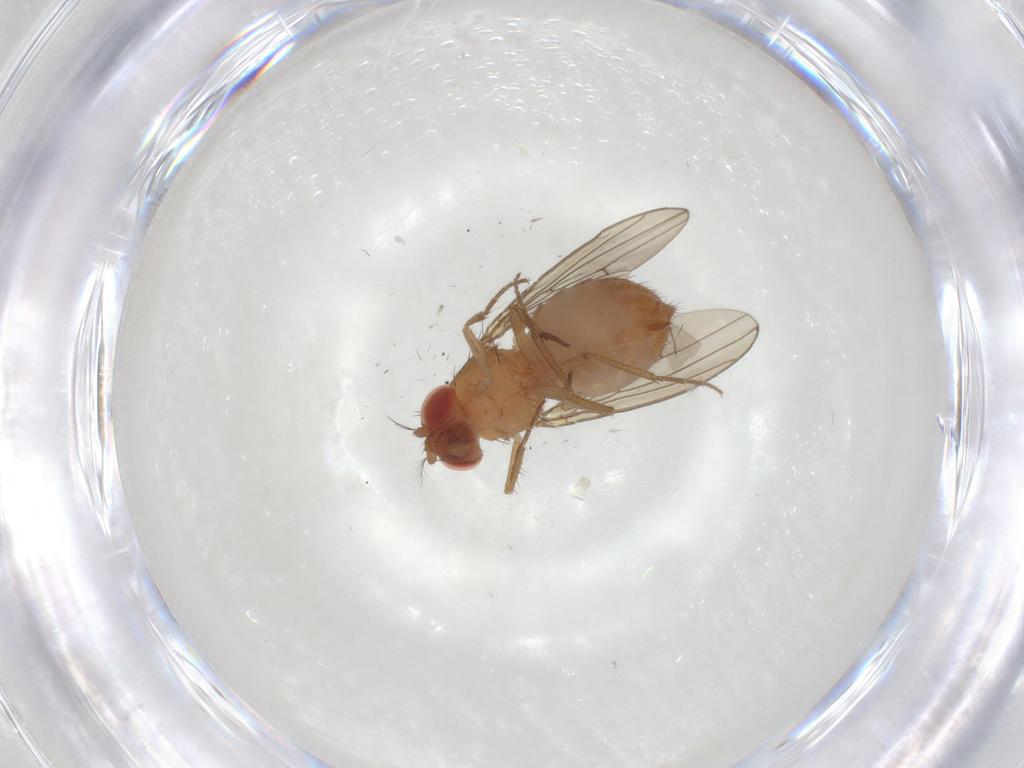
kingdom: Animalia
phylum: Arthropoda
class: Insecta
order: Diptera
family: Drosophilidae
